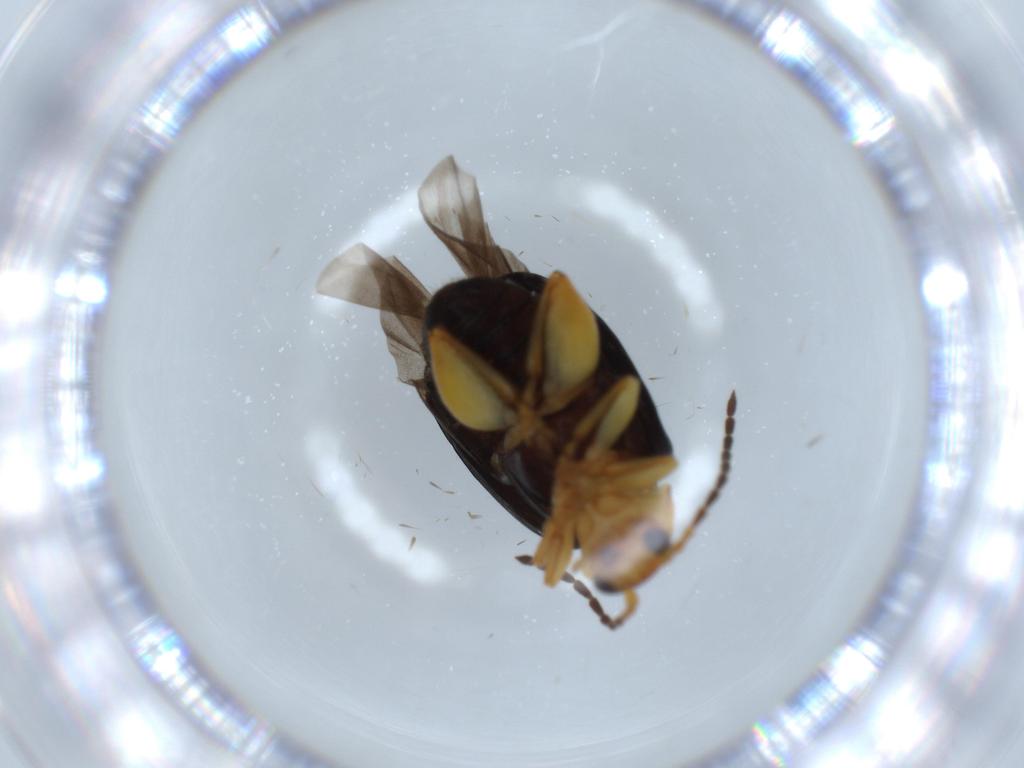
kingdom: Animalia
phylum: Arthropoda
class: Insecta
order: Coleoptera
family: Chrysomelidae
